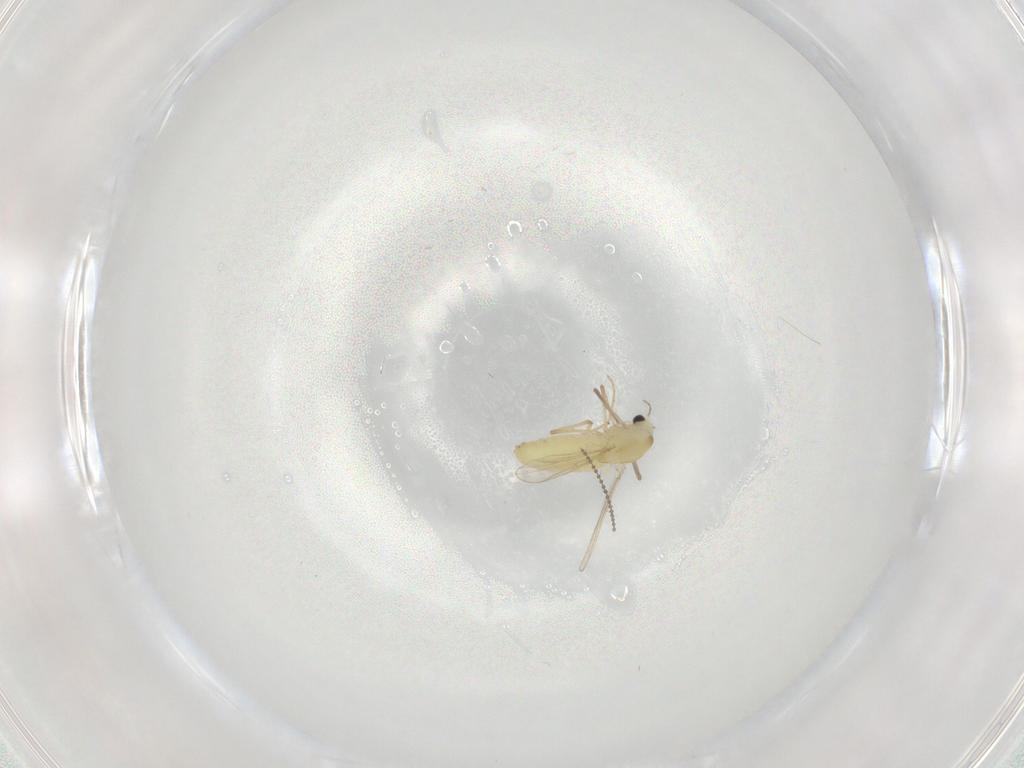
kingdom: Animalia
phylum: Arthropoda
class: Insecta
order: Diptera
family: Chironomidae
